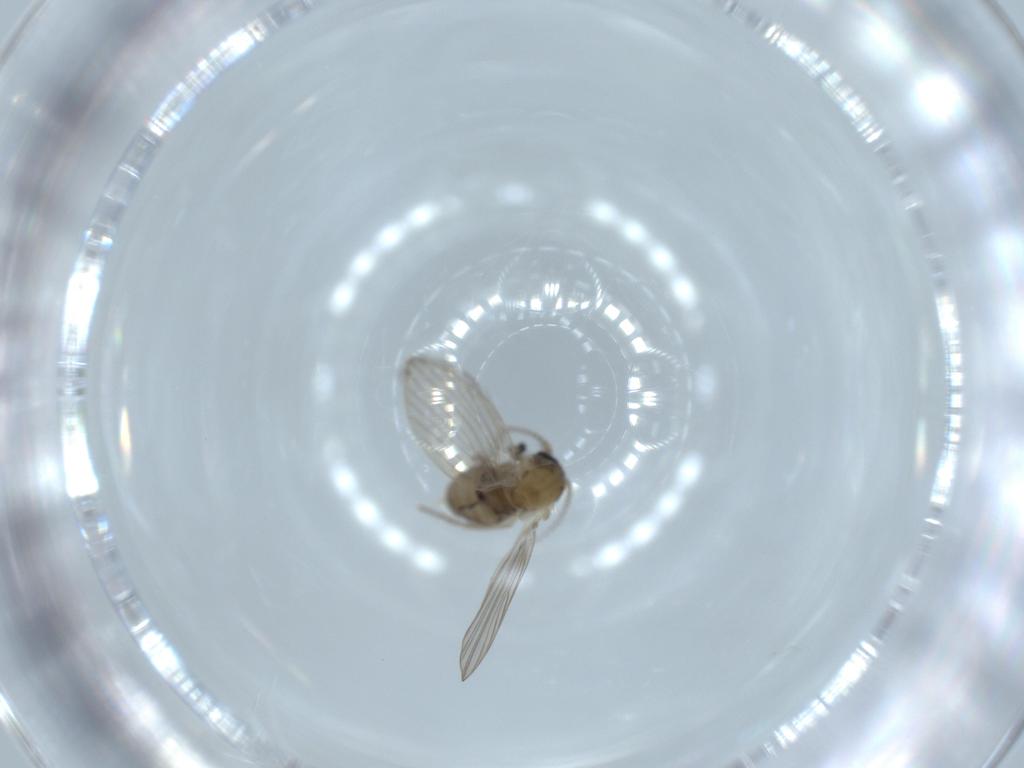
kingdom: Animalia
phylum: Arthropoda
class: Insecta
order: Diptera
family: Psychodidae
